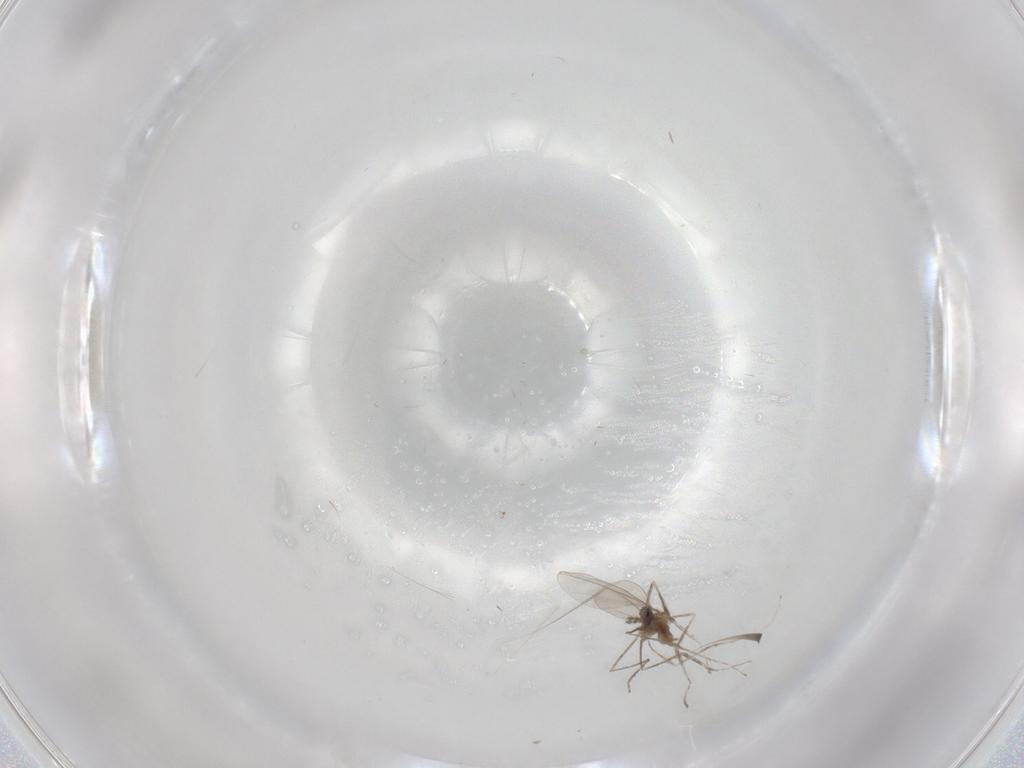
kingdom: Animalia
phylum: Arthropoda
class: Insecta
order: Diptera
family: Cecidomyiidae
